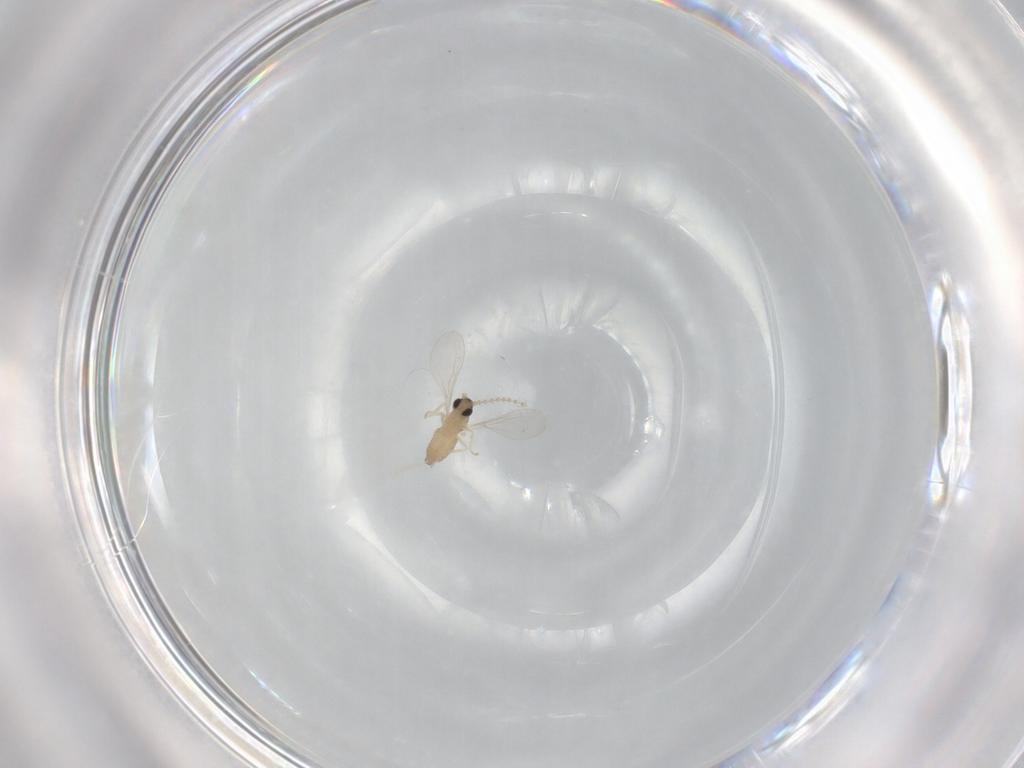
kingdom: Animalia
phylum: Arthropoda
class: Insecta
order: Diptera
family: Cecidomyiidae
